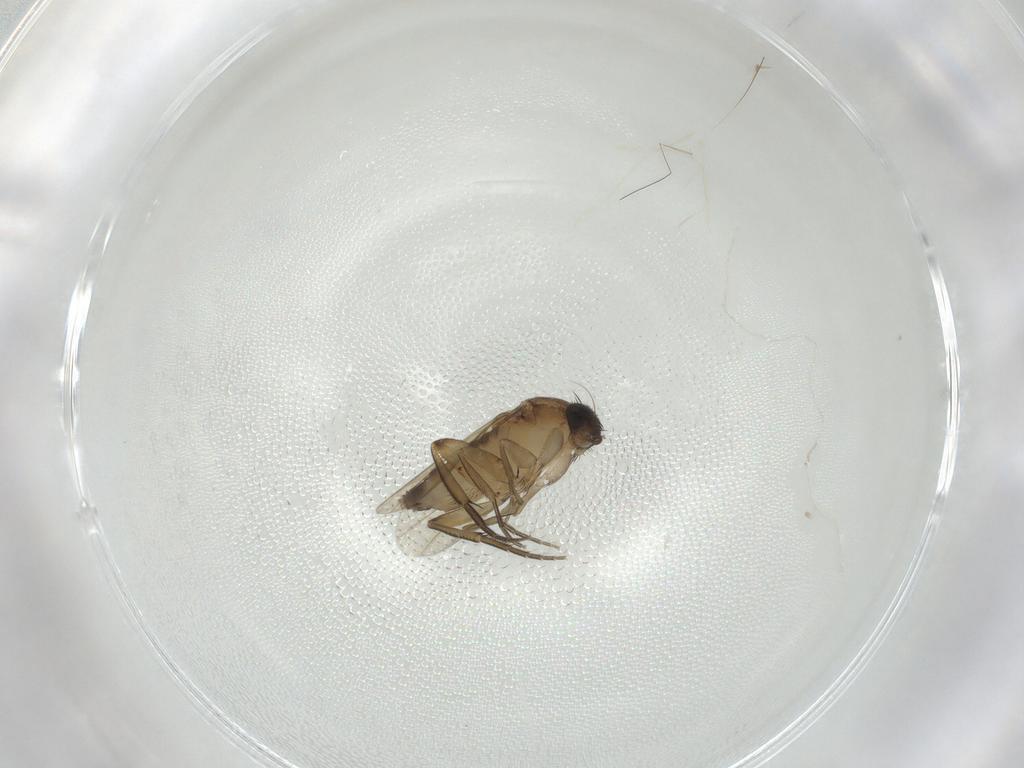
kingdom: Animalia
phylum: Arthropoda
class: Insecta
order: Diptera
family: Phoridae
